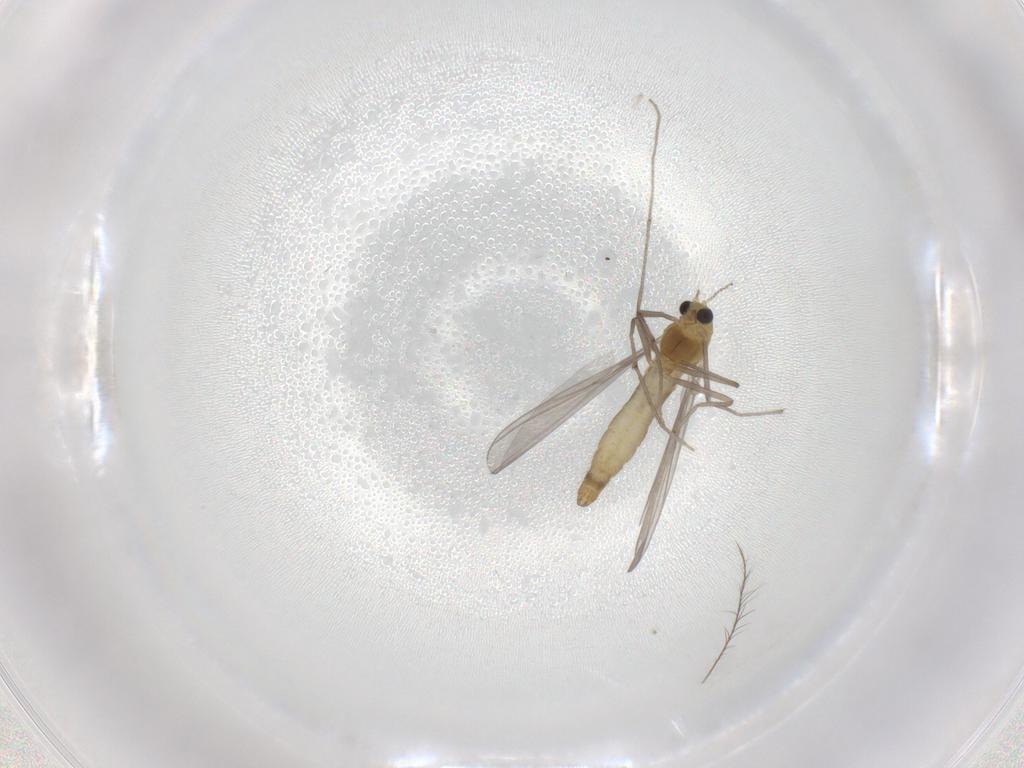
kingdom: Animalia
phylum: Arthropoda
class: Insecta
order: Diptera
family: Chironomidae
